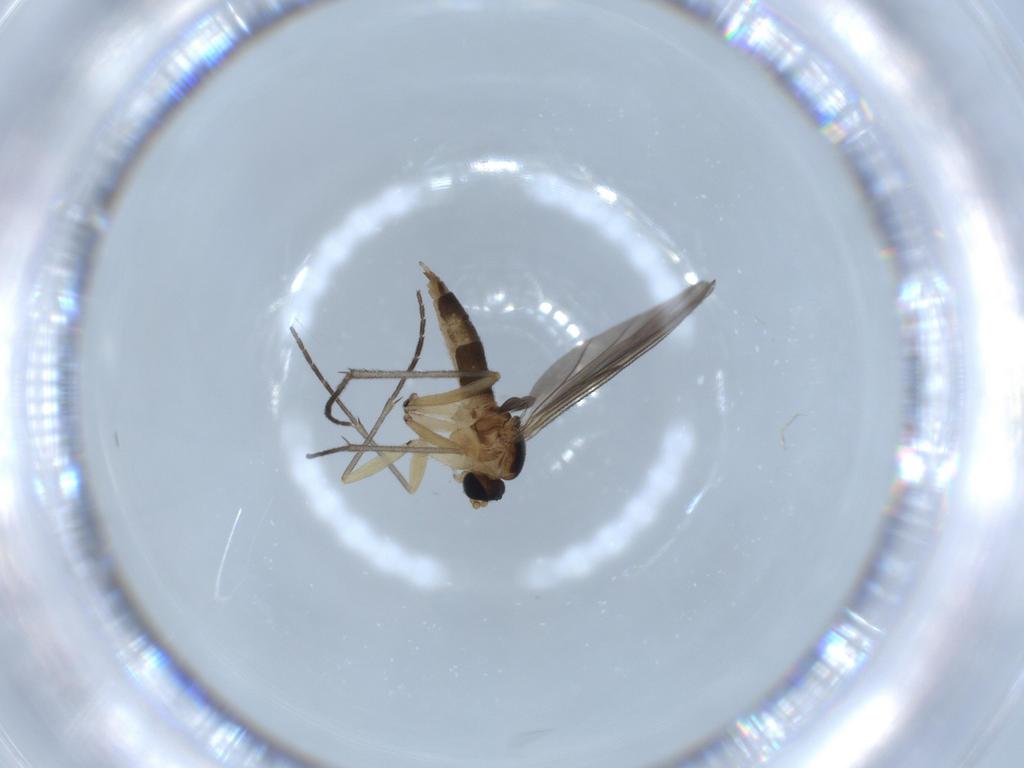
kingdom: Animalia
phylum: Arthropoda
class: Insecta
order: Diptera
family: Sciaridae
